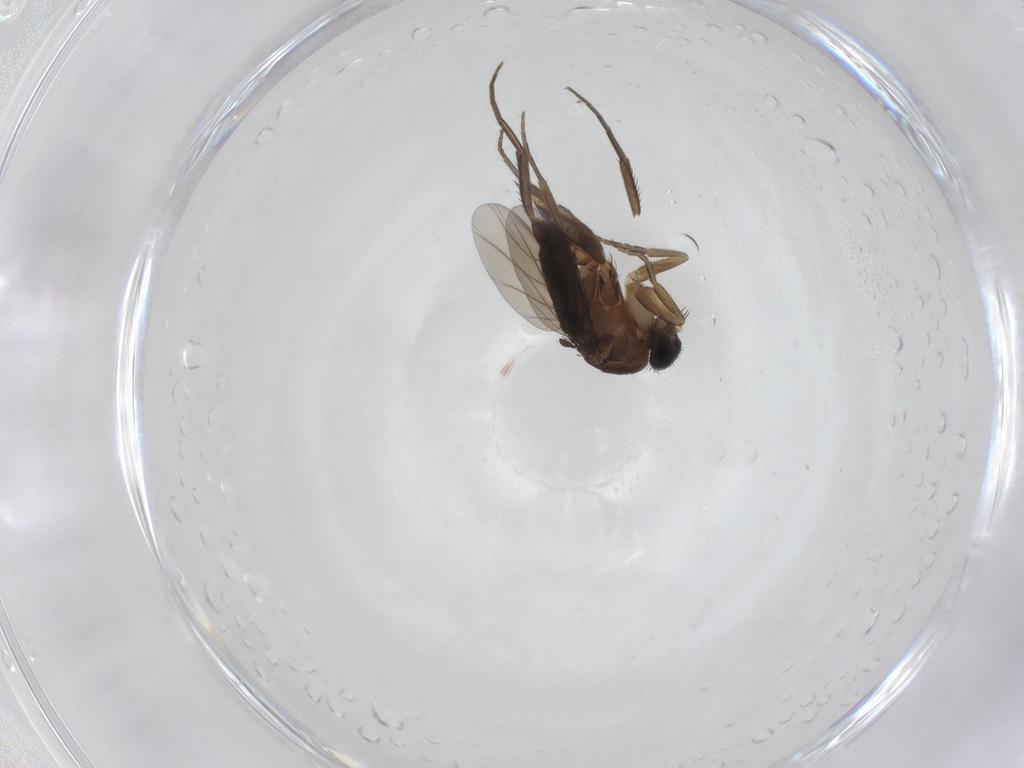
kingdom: Animalia
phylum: Arthropoda
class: Insecta
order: Diptera
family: Phoridae
